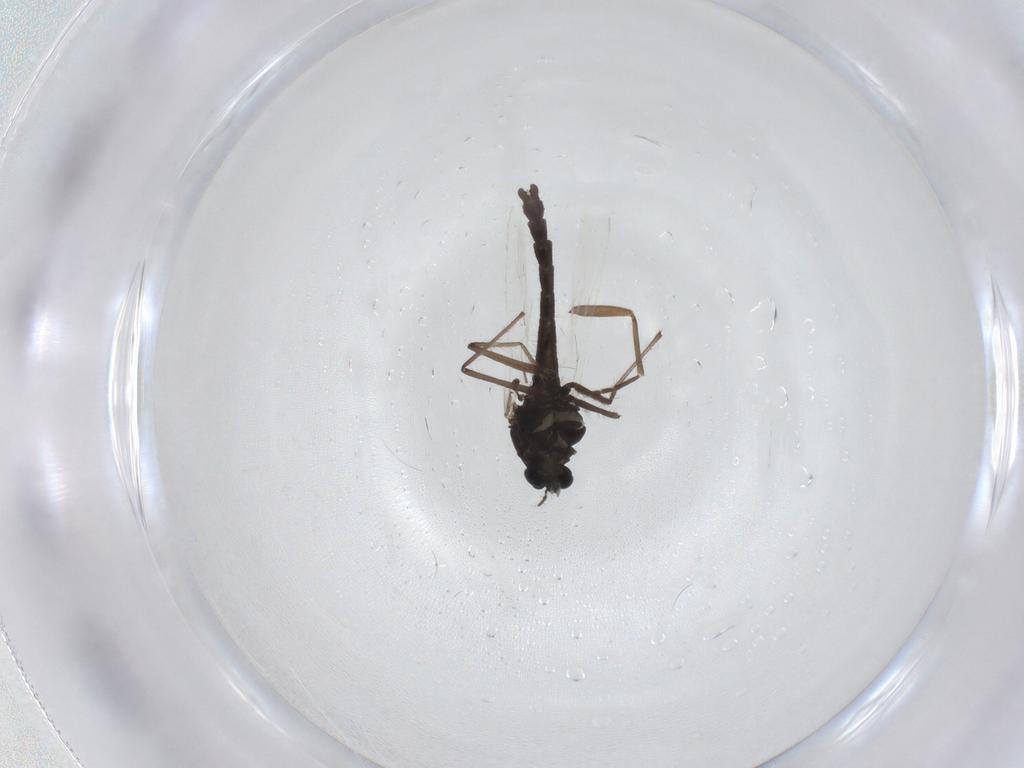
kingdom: Animalia
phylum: Arthropoda
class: Insecta
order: Diptera
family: Chironomidae
